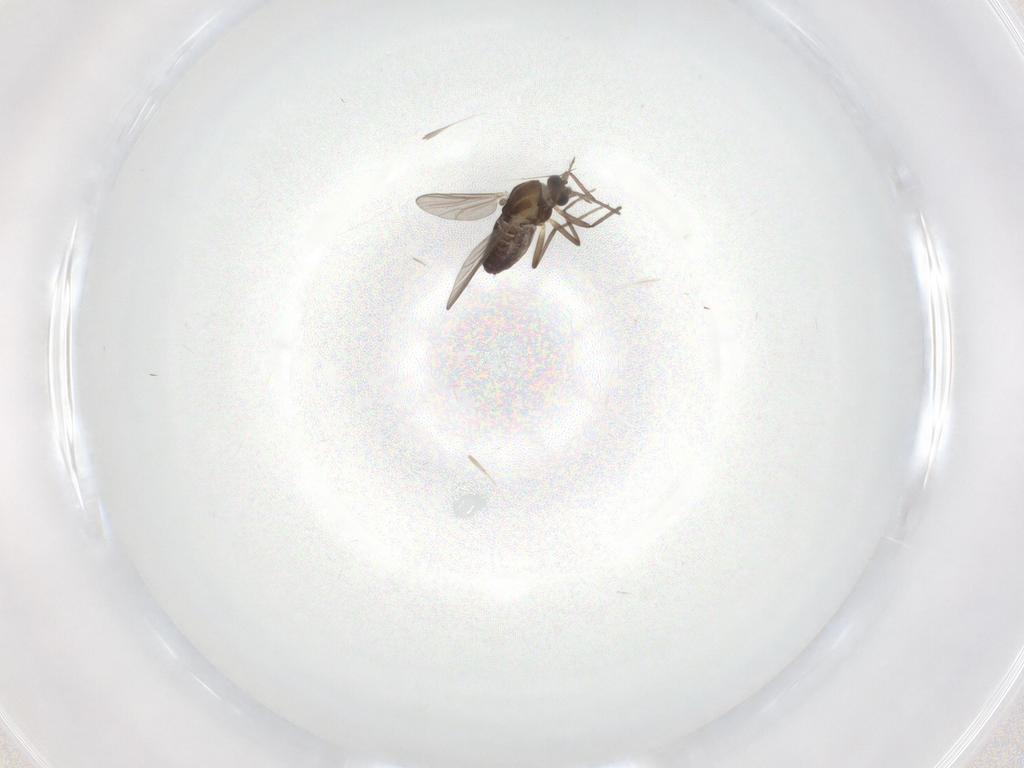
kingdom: Animalia
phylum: Arthropoda
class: Insecta
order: Diptera
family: Chironomidae
